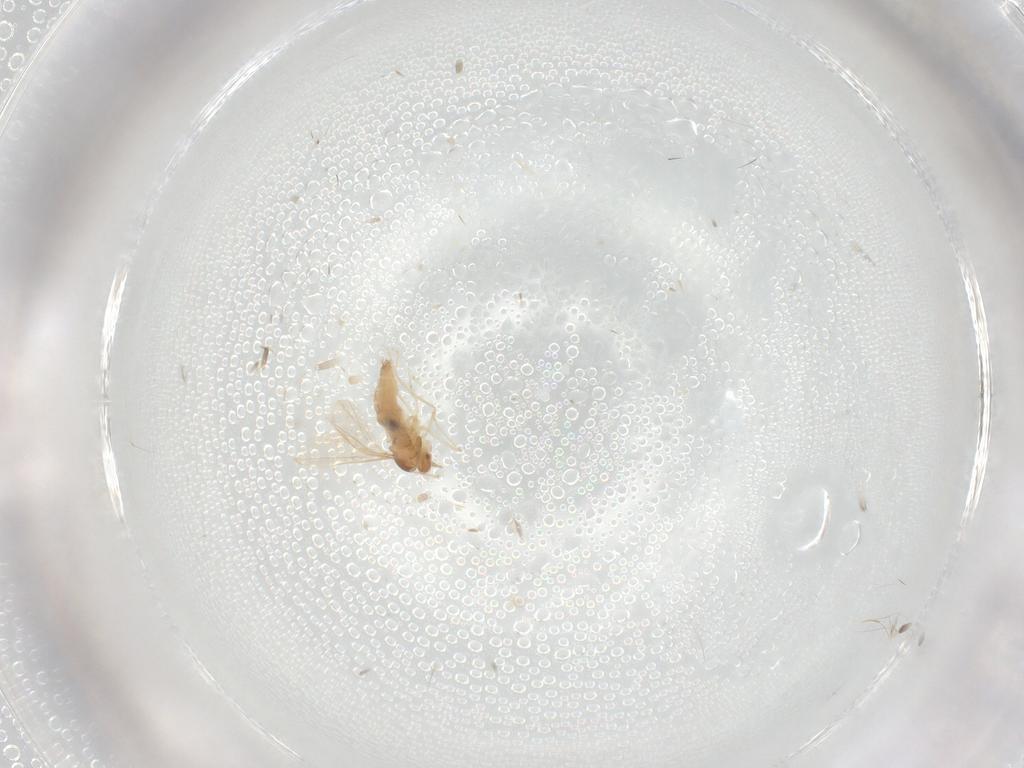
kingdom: Animalia
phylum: Arthropoda
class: Insecta
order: Diptera
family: Cecidomyiidae
